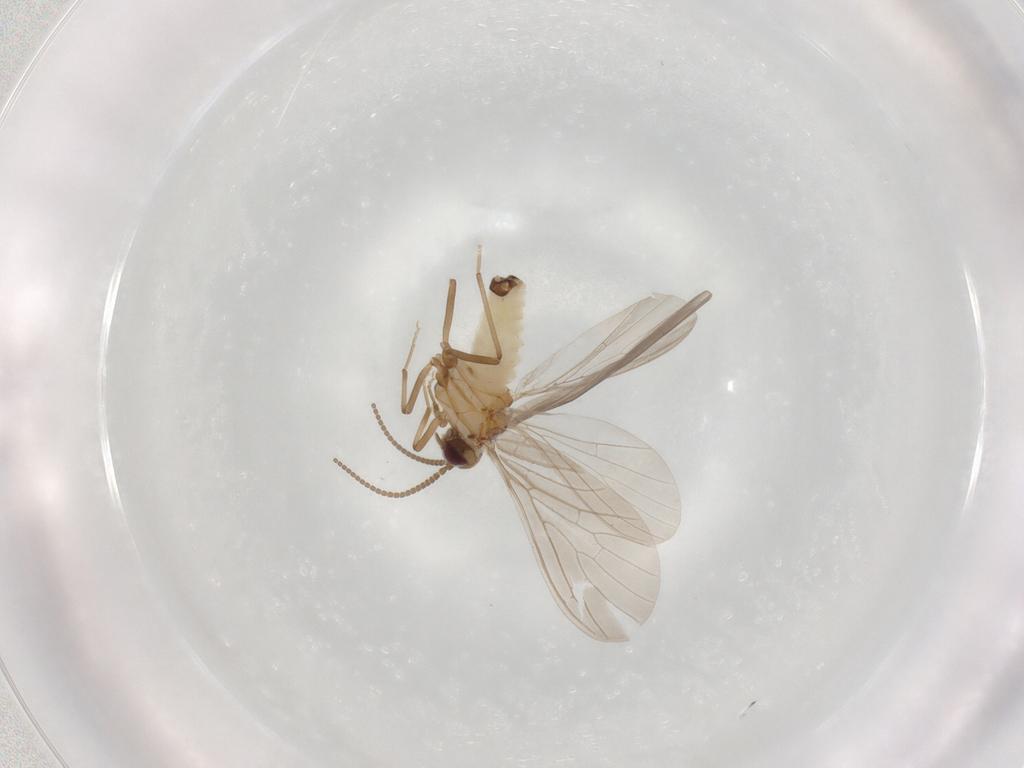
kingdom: Animalia
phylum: Arthropoda
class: Insecta
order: Neuroptera
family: Coniopterygidae
